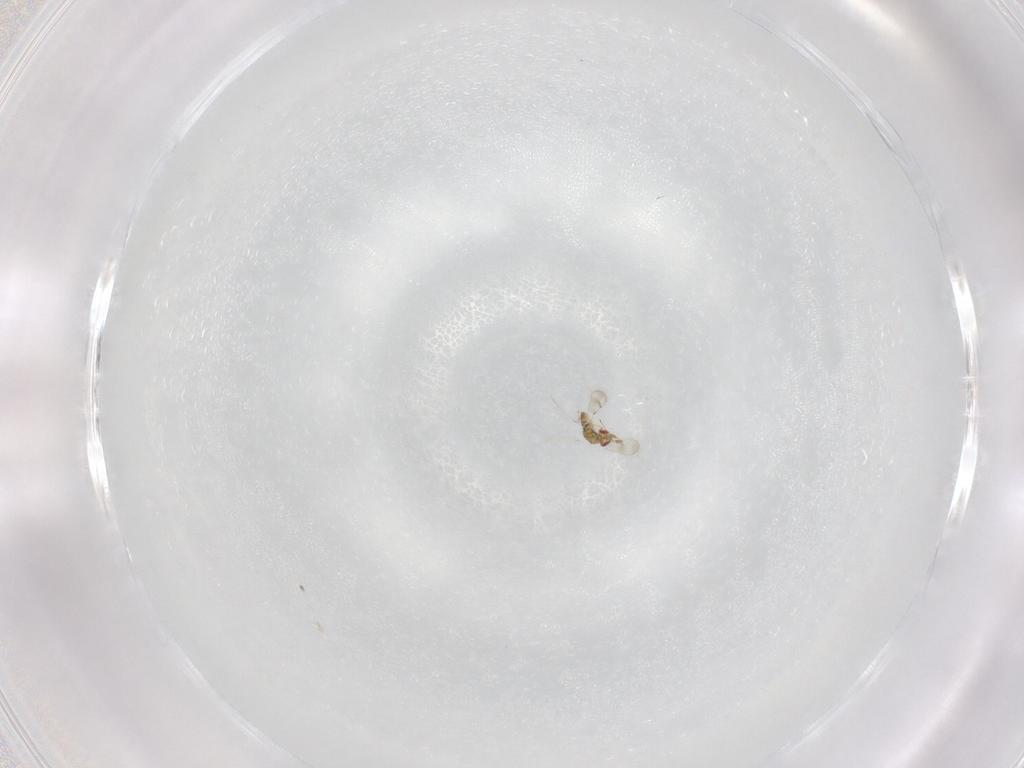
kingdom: Animalia
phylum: Arthropoda
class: Insecta
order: Hymenoptera
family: Eulophidae
